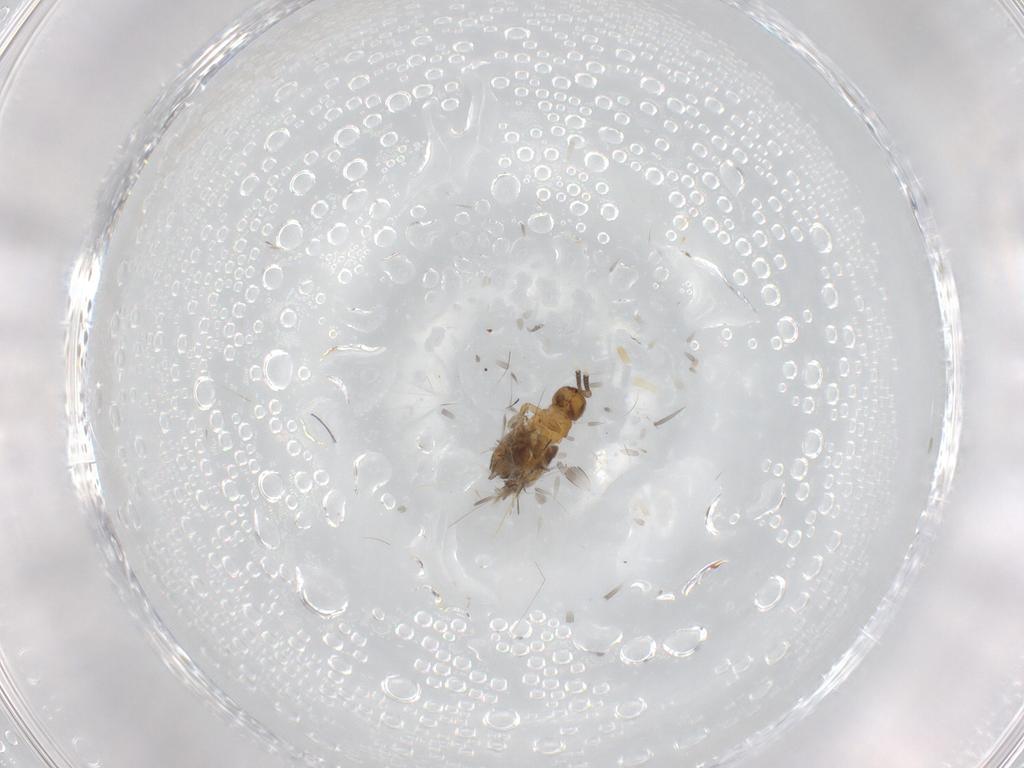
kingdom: Animalia
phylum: Arthropoda
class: Insecta
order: Hymenoptera
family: Scelionidae
